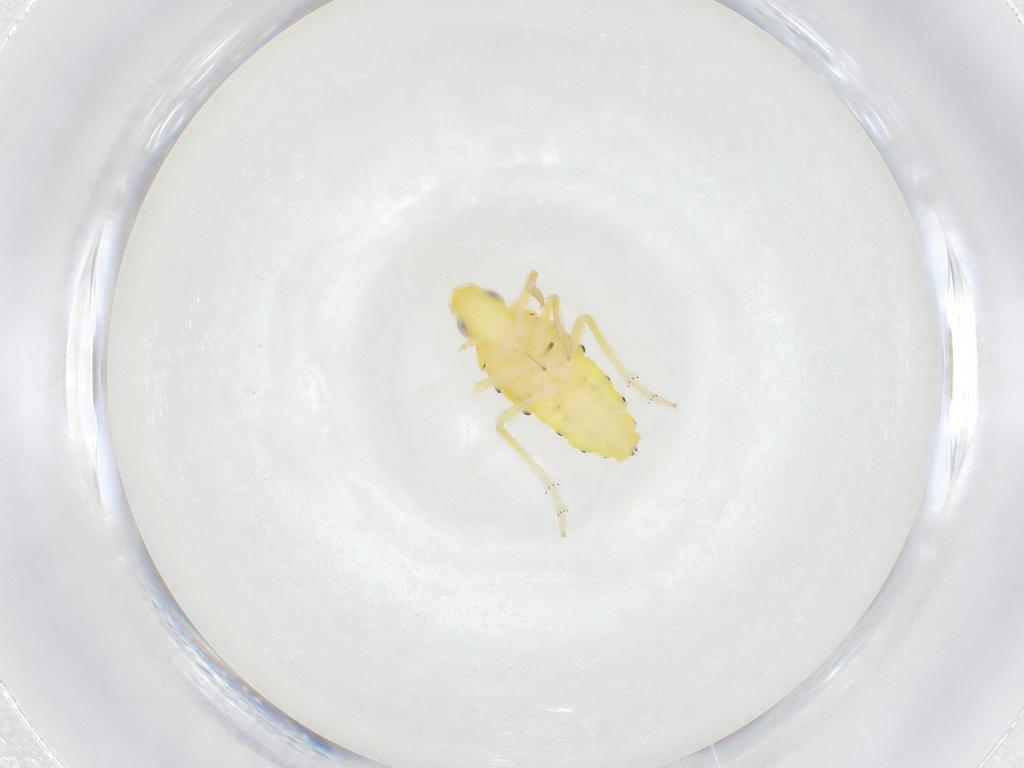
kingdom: Animalia
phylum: Arthropoda
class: Insecta
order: Hemiptera
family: Tropiduchidae
